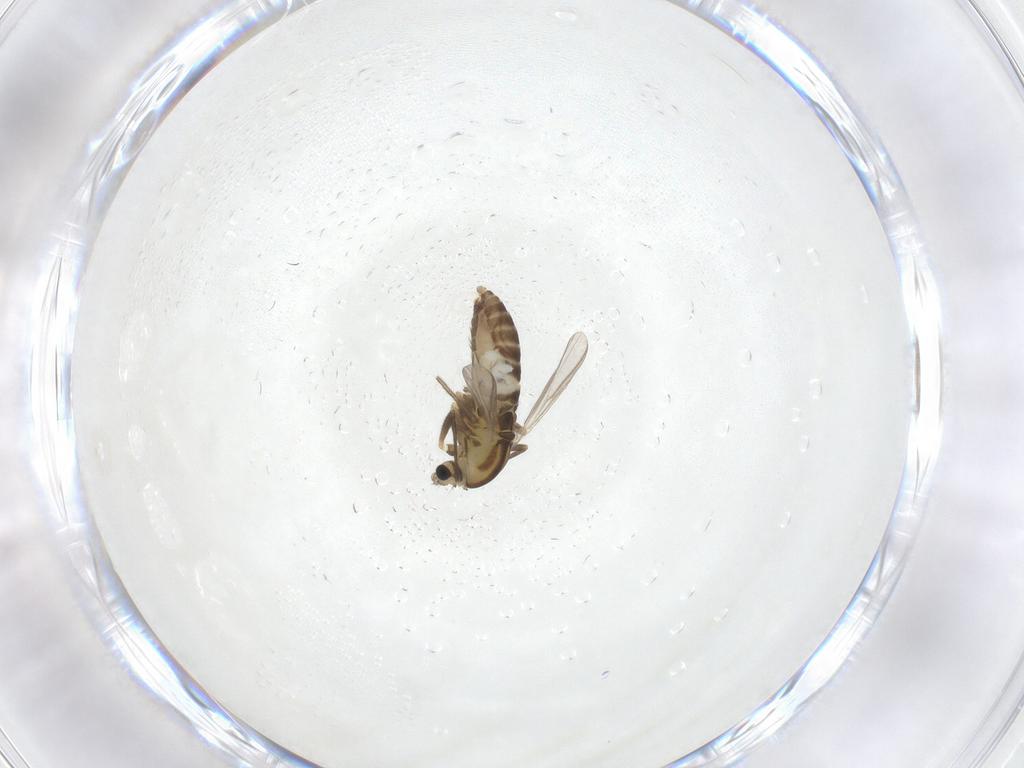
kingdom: Animalia
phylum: Arthropoda
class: Insecta
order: Diptera
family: Chironomidae
